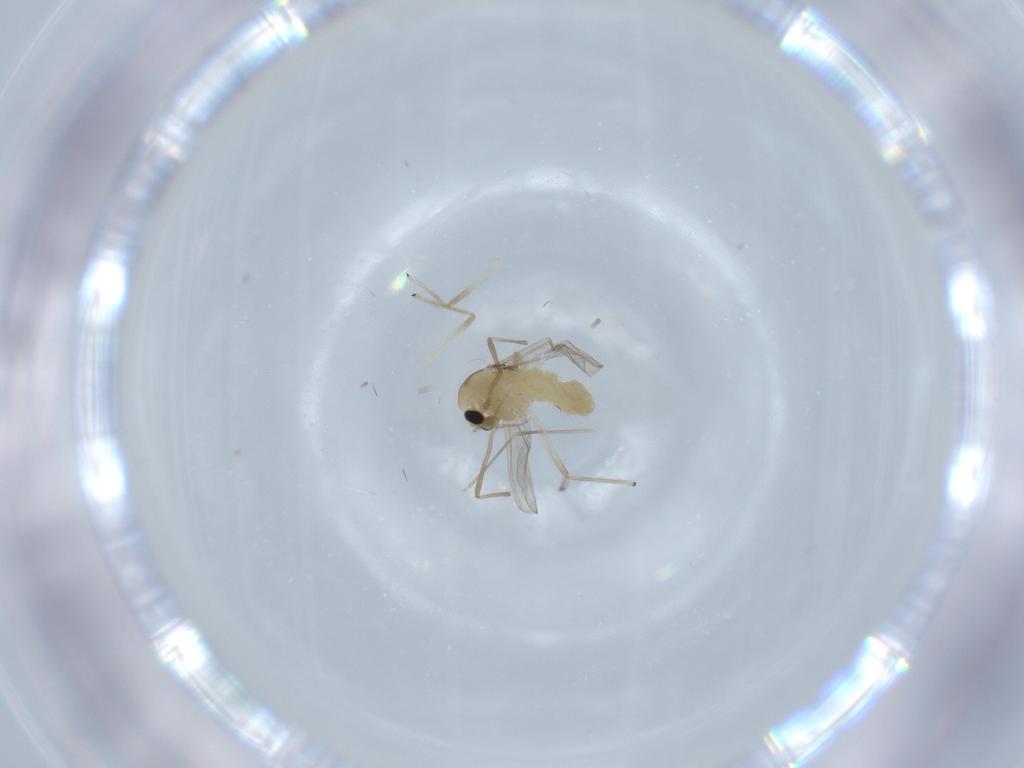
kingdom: Animalia
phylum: Arthropoda
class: Insecta
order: Diptera
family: Chironomidae
